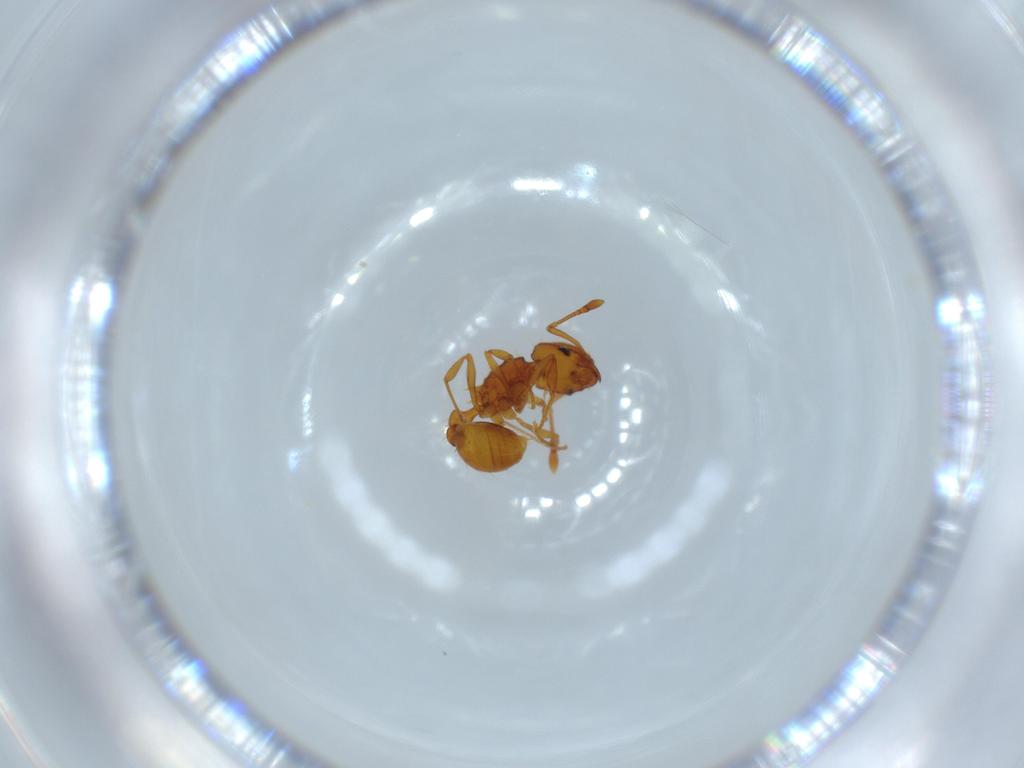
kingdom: Animalia
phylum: Arthropoda
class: Insecta
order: Hymenoptera
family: Formicidae
